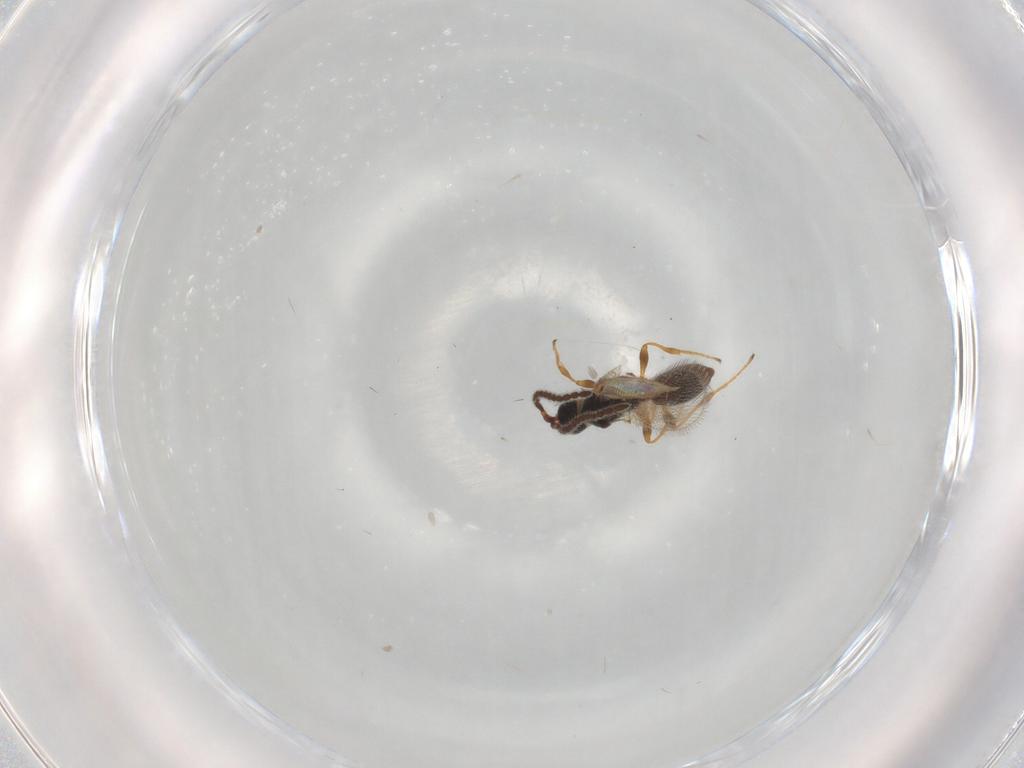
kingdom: Animalia
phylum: Arthropoda
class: Insecta
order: Hymenoptera
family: Diapriidae
